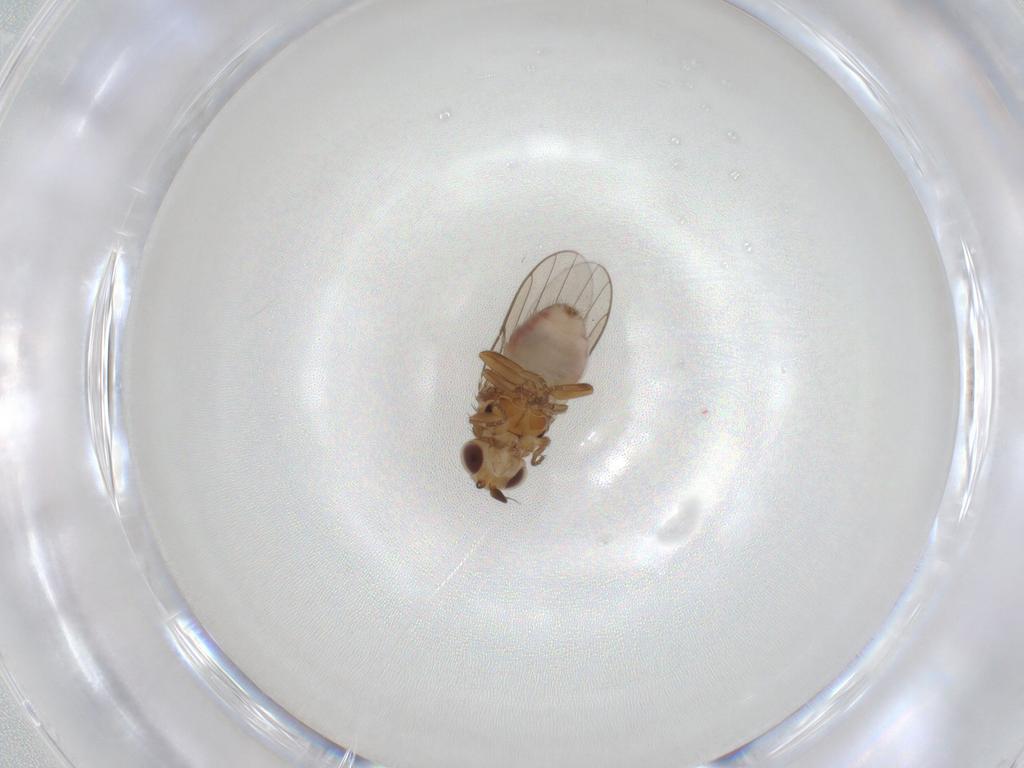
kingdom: Animalia
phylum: Arthropoda
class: Insecta
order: Diptera
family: Chloropidae
